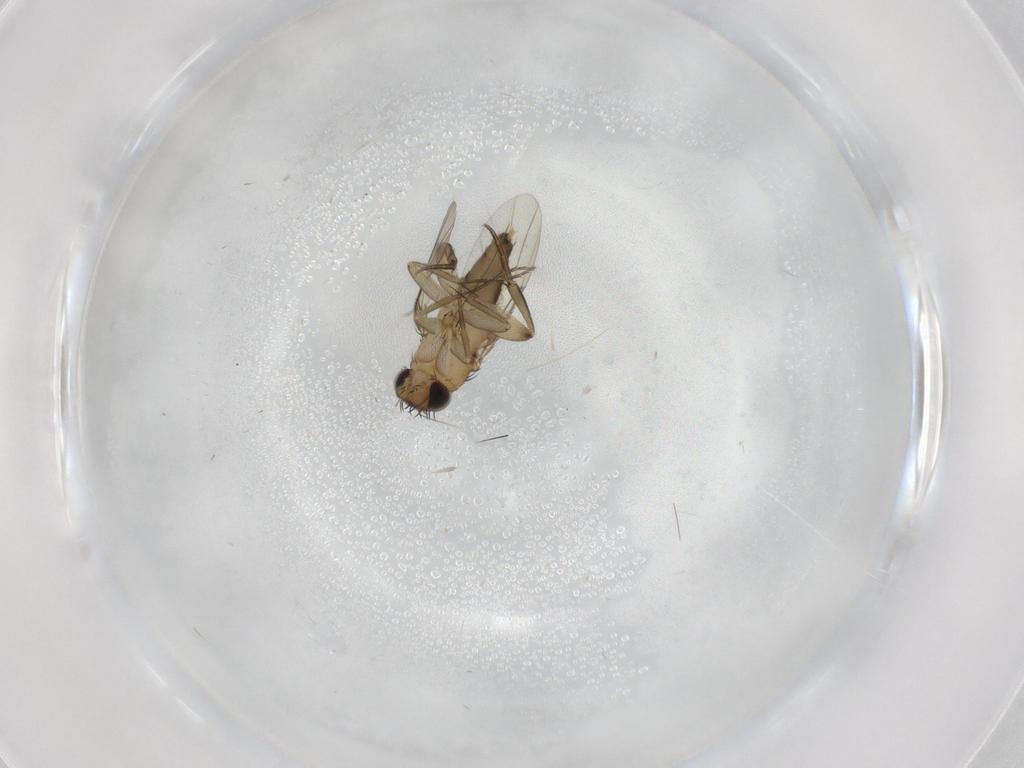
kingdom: Animalia
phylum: Arthropoda
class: Insecta
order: Diptera
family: Phoridae
